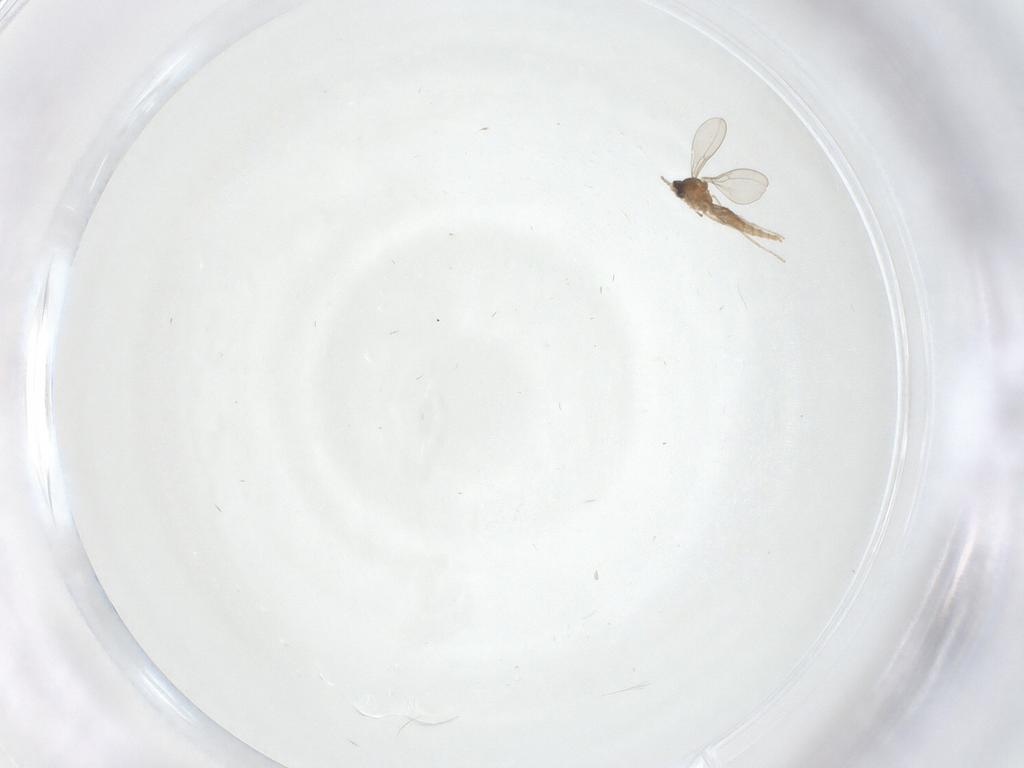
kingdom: Animalia
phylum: Arthropoda
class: Insecta
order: Diptera
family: Cecidomyiidae
